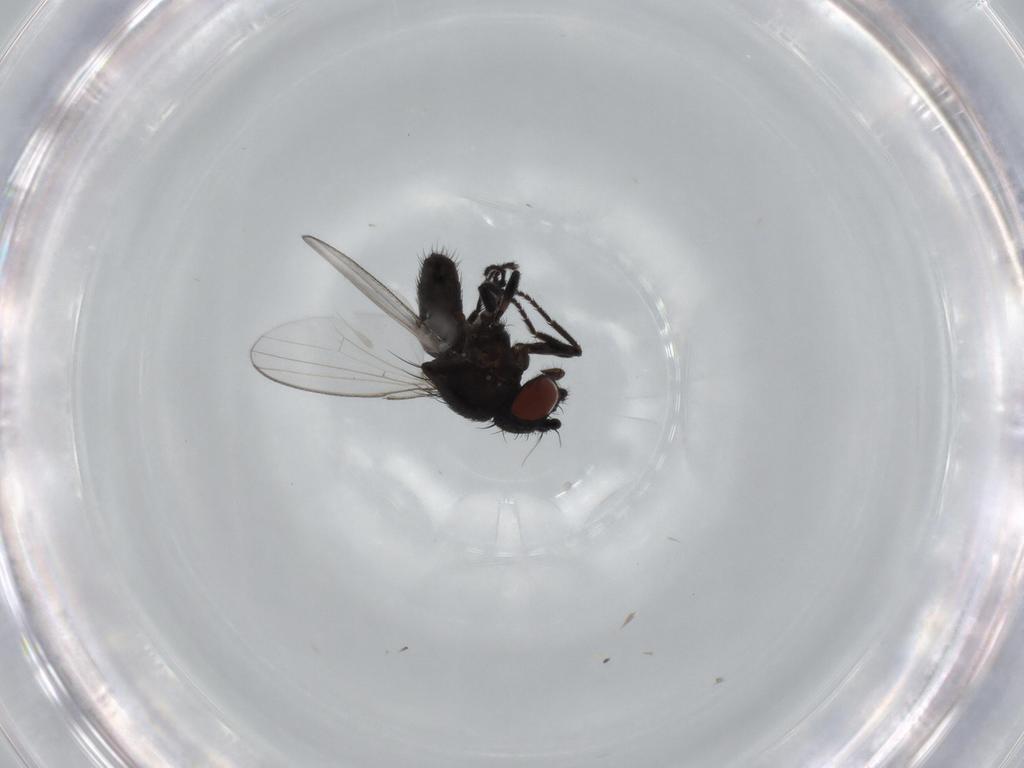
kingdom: Animalia
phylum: Arthropoda
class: Insecta
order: Diptera
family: Milichiidae
